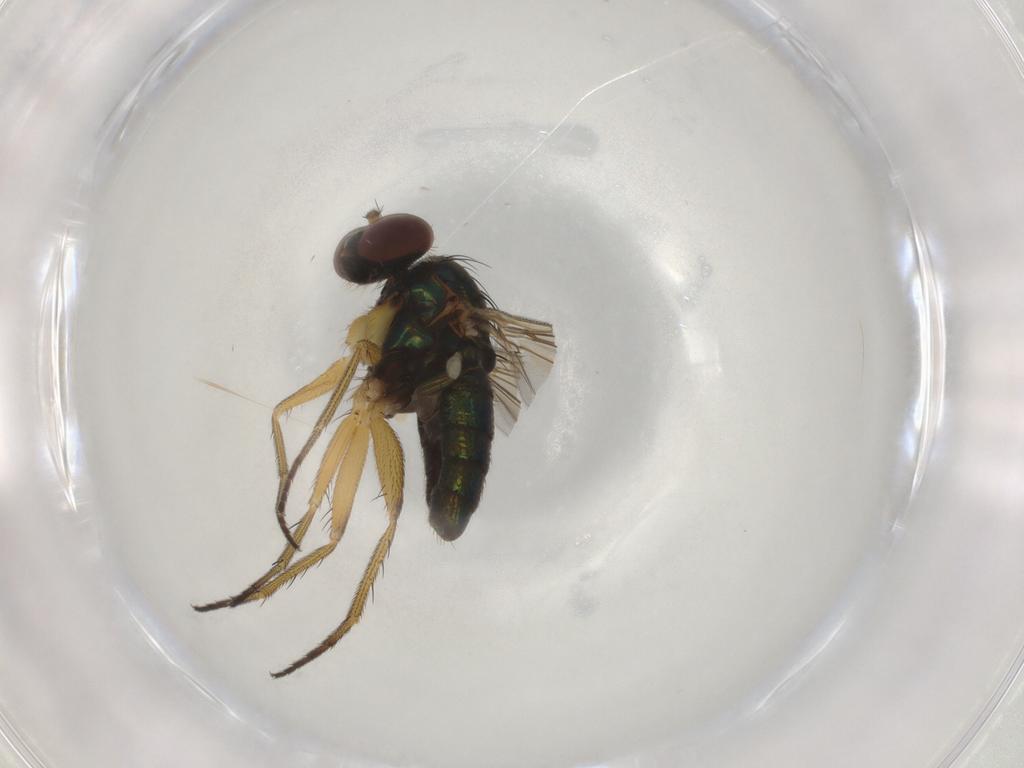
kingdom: Animalia
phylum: Arthropoda
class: Insecta
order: Diptera
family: Dolichopodidae
